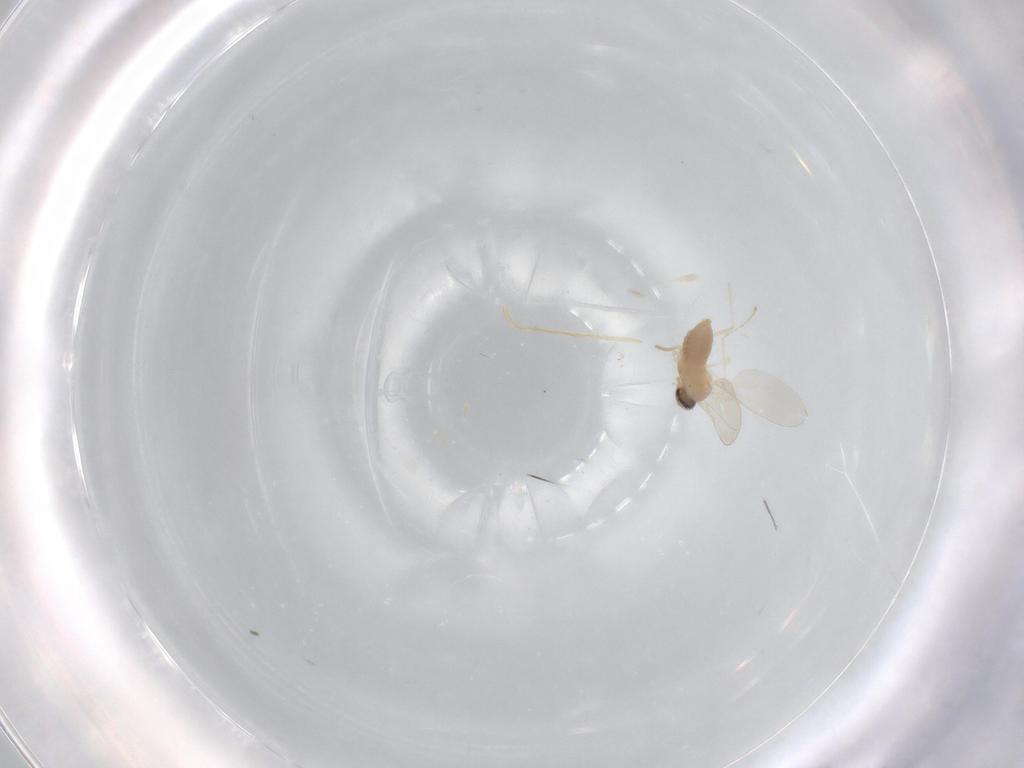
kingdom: Animalia
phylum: Arthropoda
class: Insecta
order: Diptera
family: Cecidomyiidae
